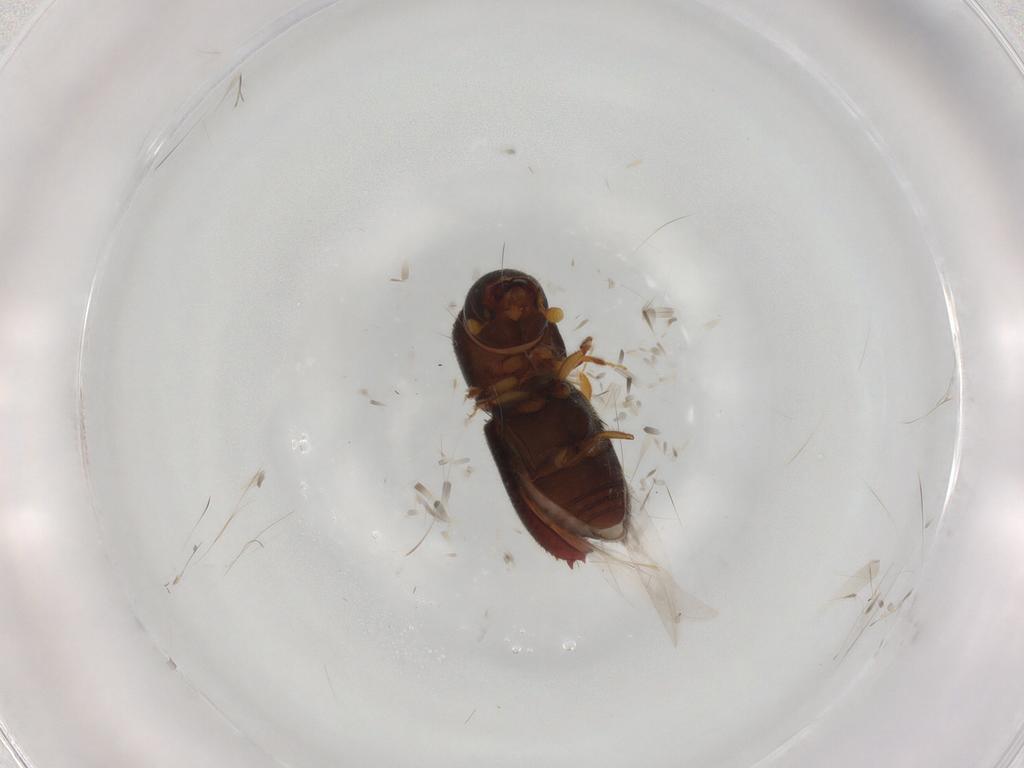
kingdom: Animalia
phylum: Arthropoda
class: Insecta
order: Coleoptera
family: Curculionidae
